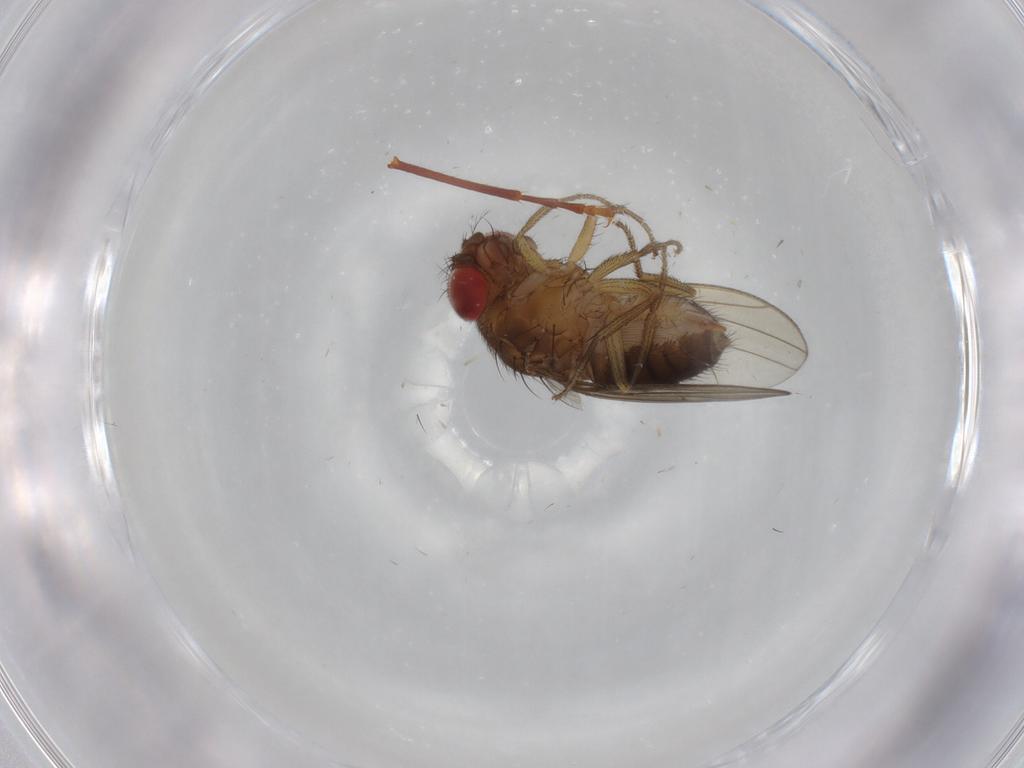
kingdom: Animalia
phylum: Arthropoda
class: Insecta
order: Diptera
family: Drosophilidae
